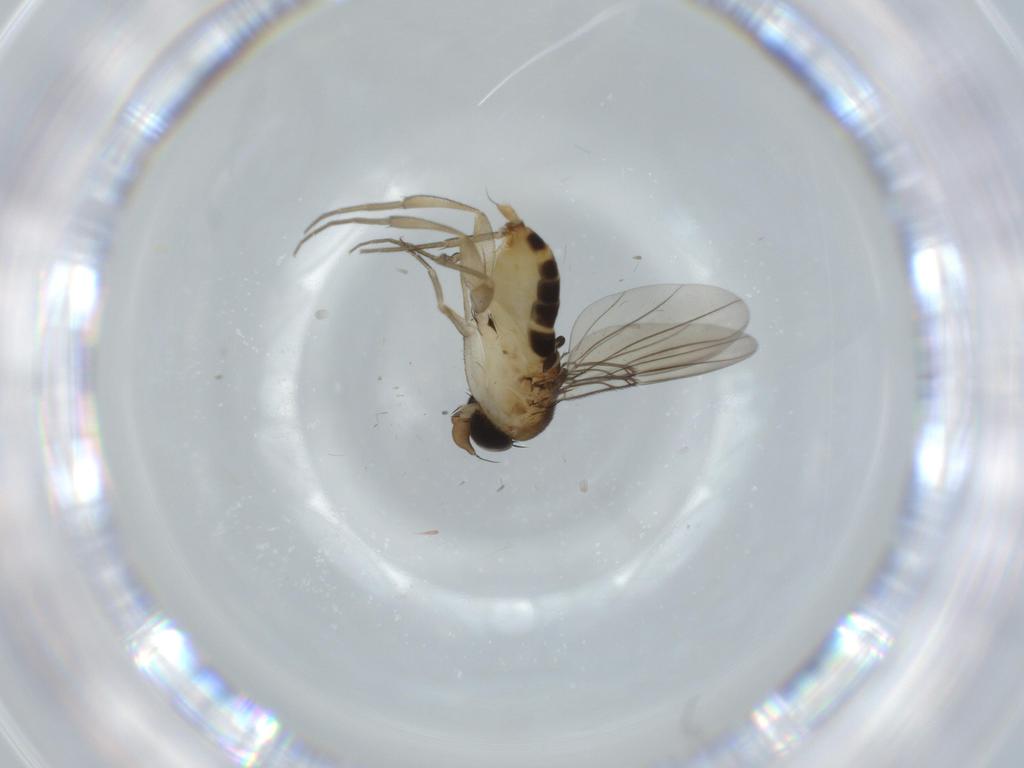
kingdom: Animalia
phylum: Arthropoda
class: Insecta
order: Diptera
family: Phoridae
